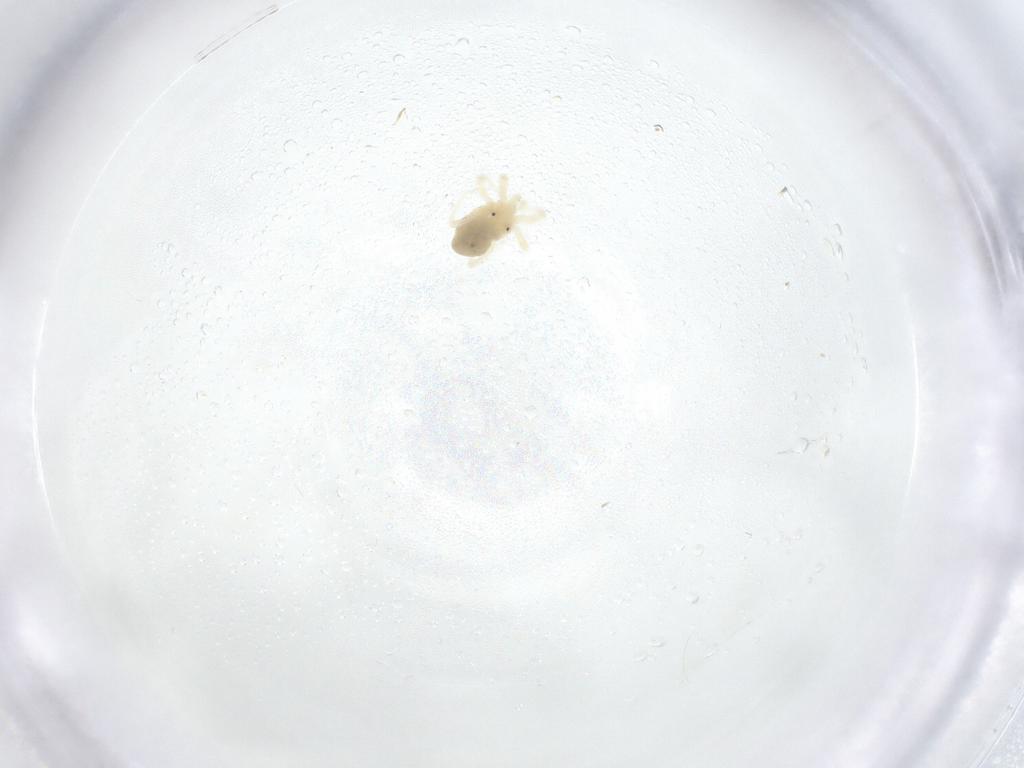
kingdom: Animalia
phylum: Arthropoda
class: Arachnida
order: Trombidiformes
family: Anystidae
